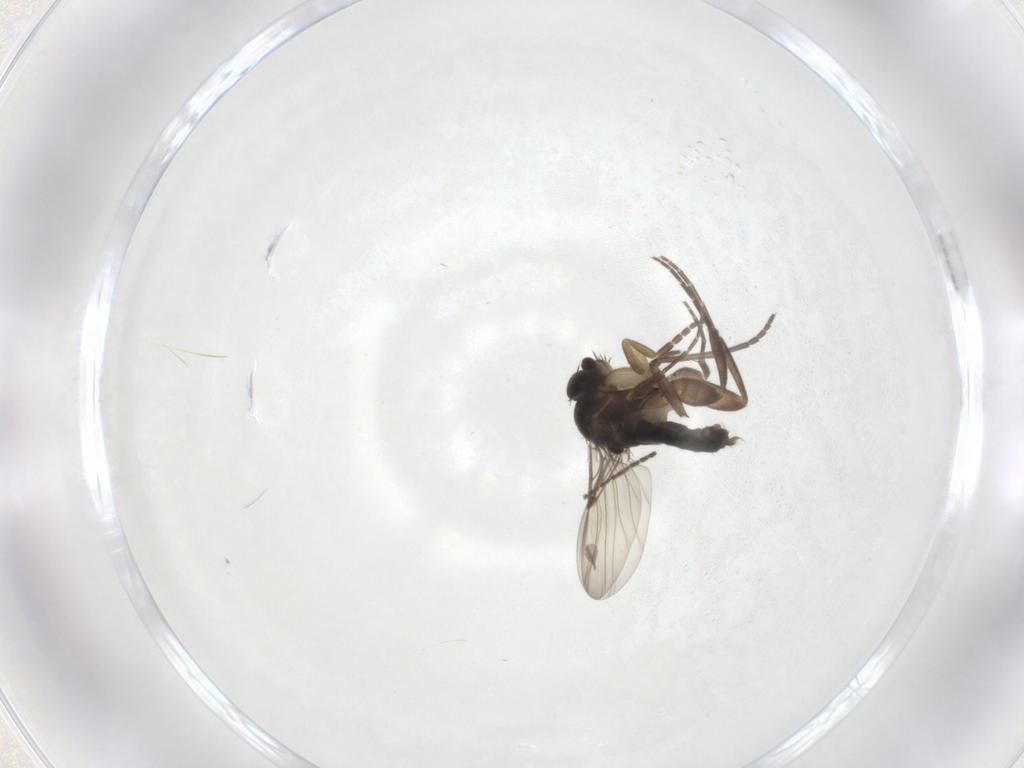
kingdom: Animalia
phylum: Arthropoda
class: Insecta
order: Diptera
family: Phoridae
